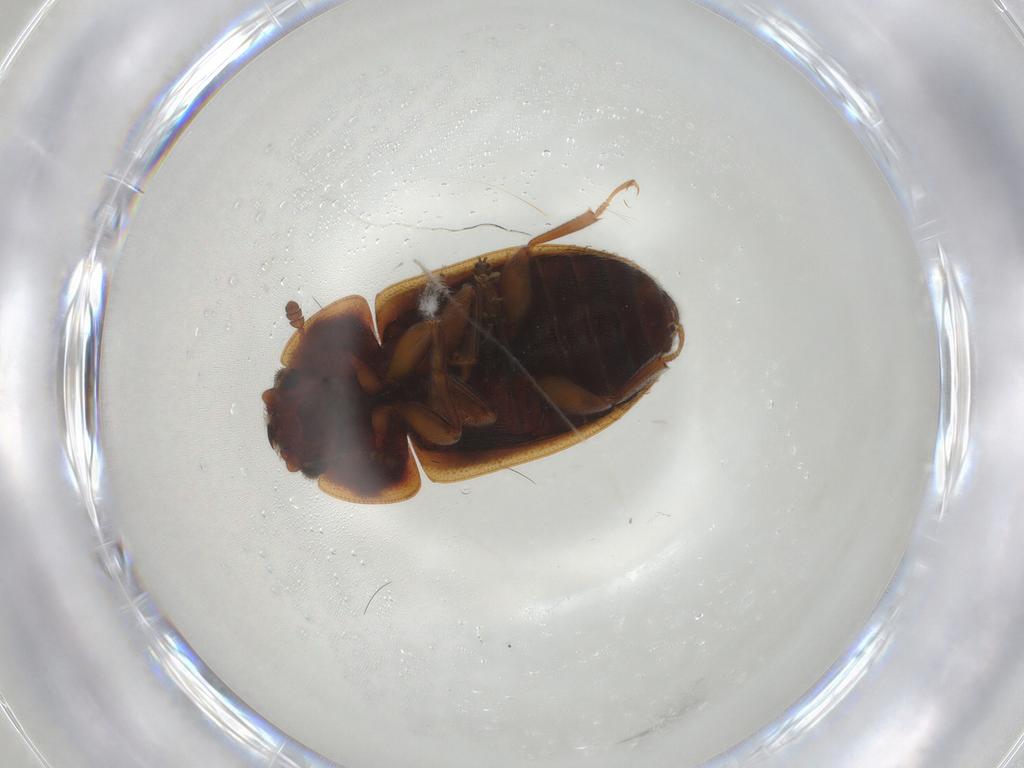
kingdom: Animalia
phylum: Arthropoda
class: Insecta
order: Coleoptera
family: Nitidulidae
